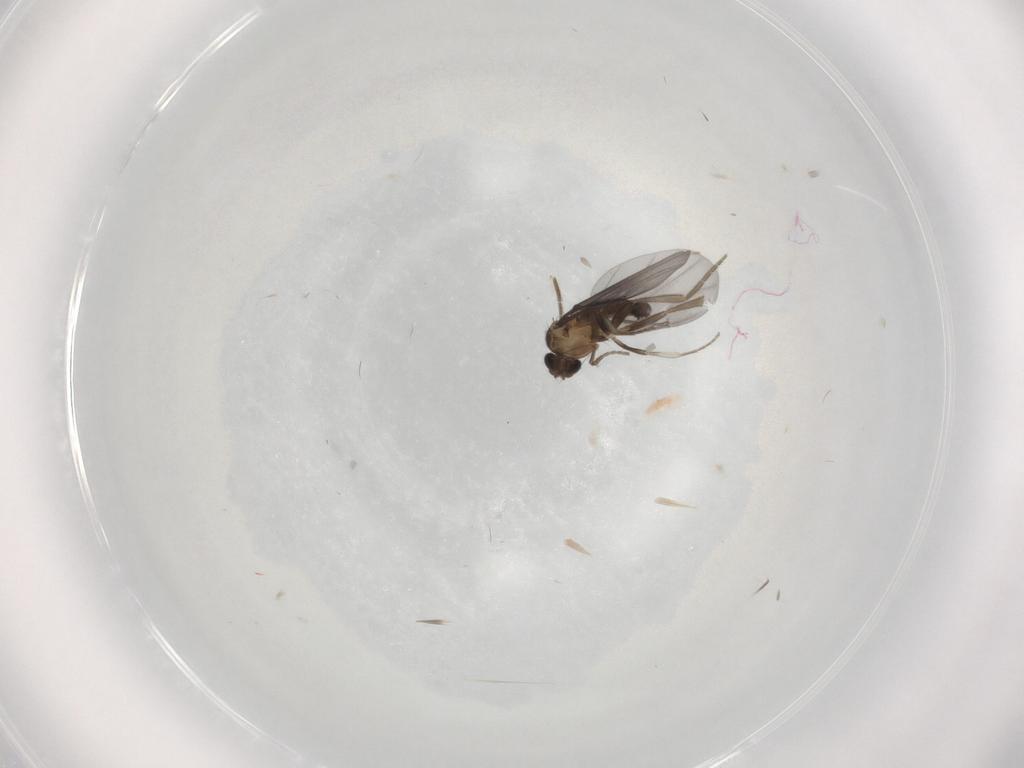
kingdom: Animalia
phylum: Arthropoda
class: Insecta
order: Diptera
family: Phoridae
